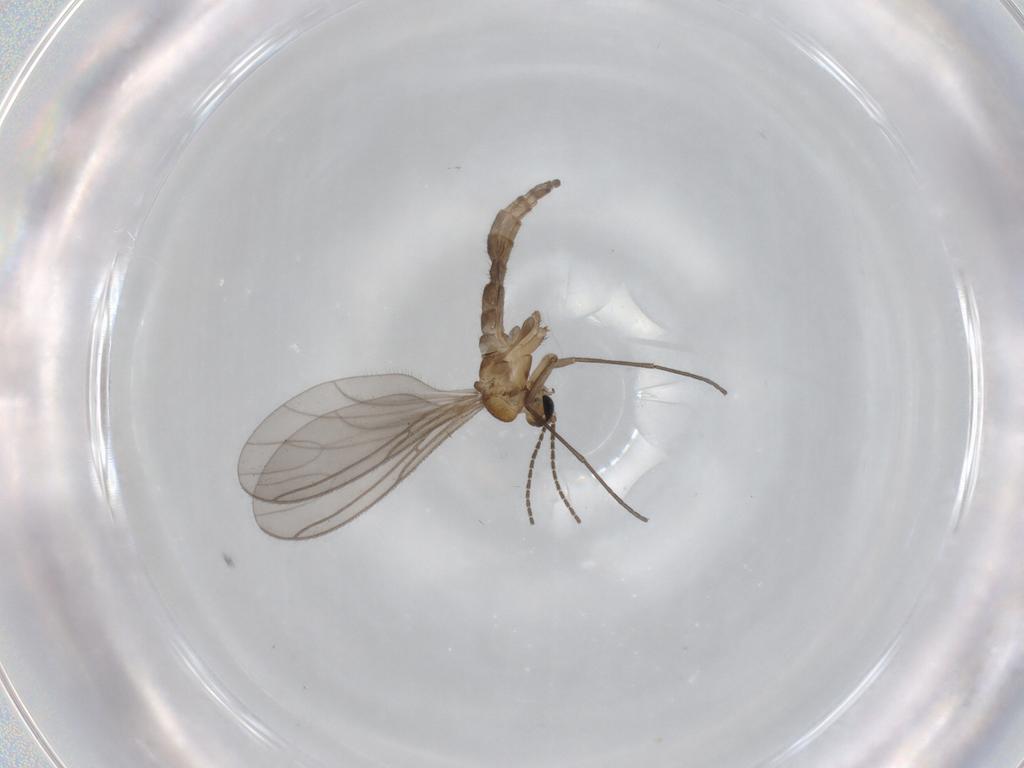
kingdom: Animalia
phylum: Arthropoda
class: Insecta
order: Diptera
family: Sciaridae
